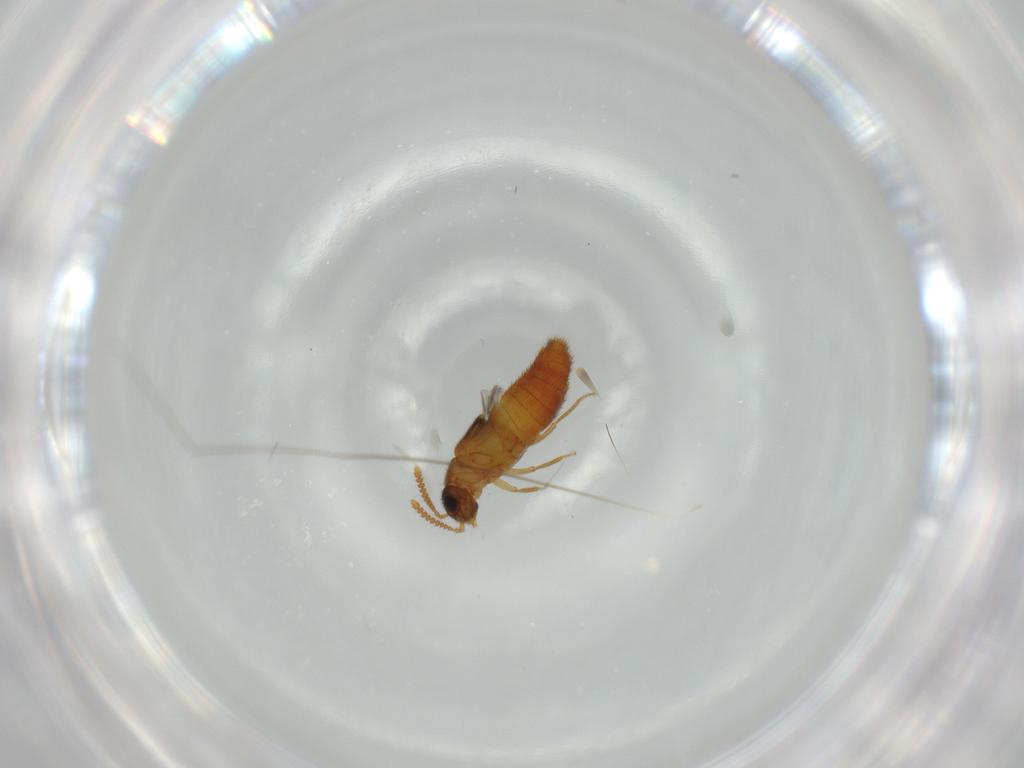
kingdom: Animalia
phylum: Arthropoda
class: Insecta
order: Coleoptera
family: Staphylinidae
